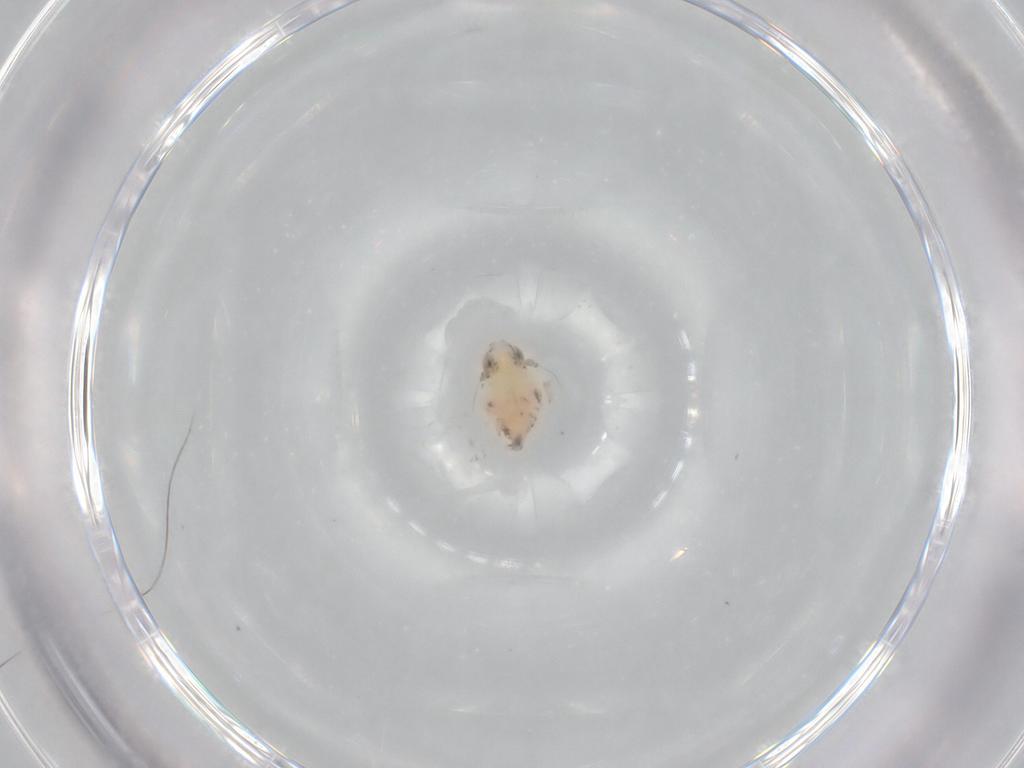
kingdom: Animalia
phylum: Arthropoda
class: Insecta
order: Hemiptera
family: Nogodinidae
